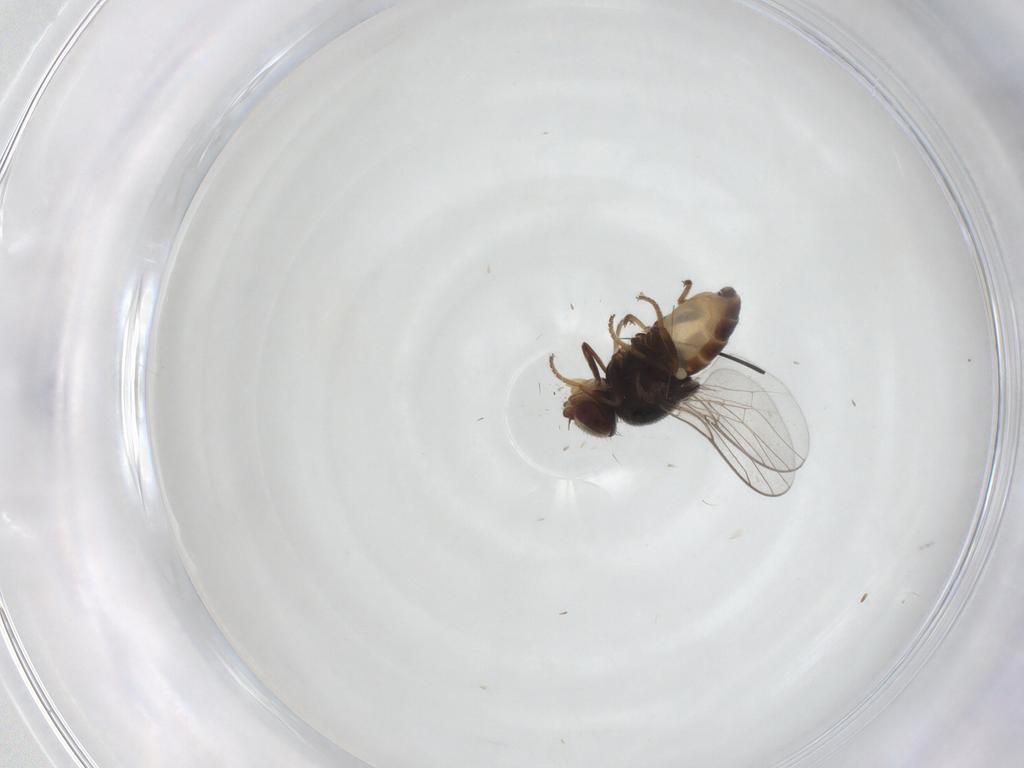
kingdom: Animalia
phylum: Arthropoda
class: Insecta
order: Diptera
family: Chloropidae
